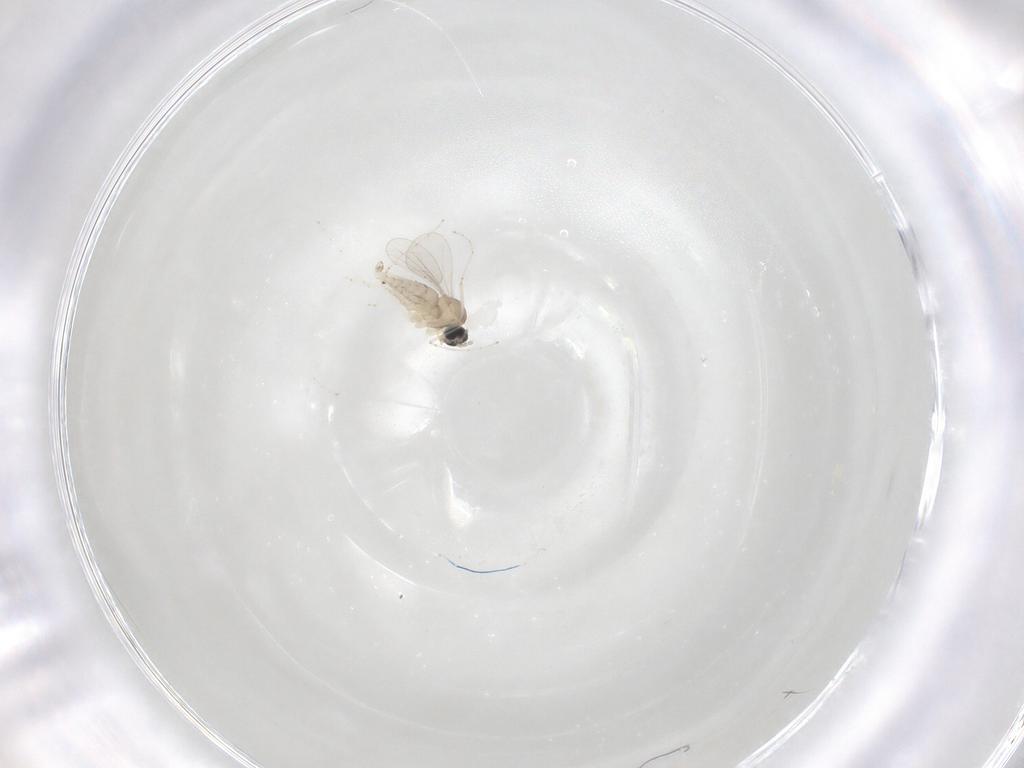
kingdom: Animalia
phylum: Arthropoda
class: Insecta
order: Diptera
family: Cecidomyiidae
